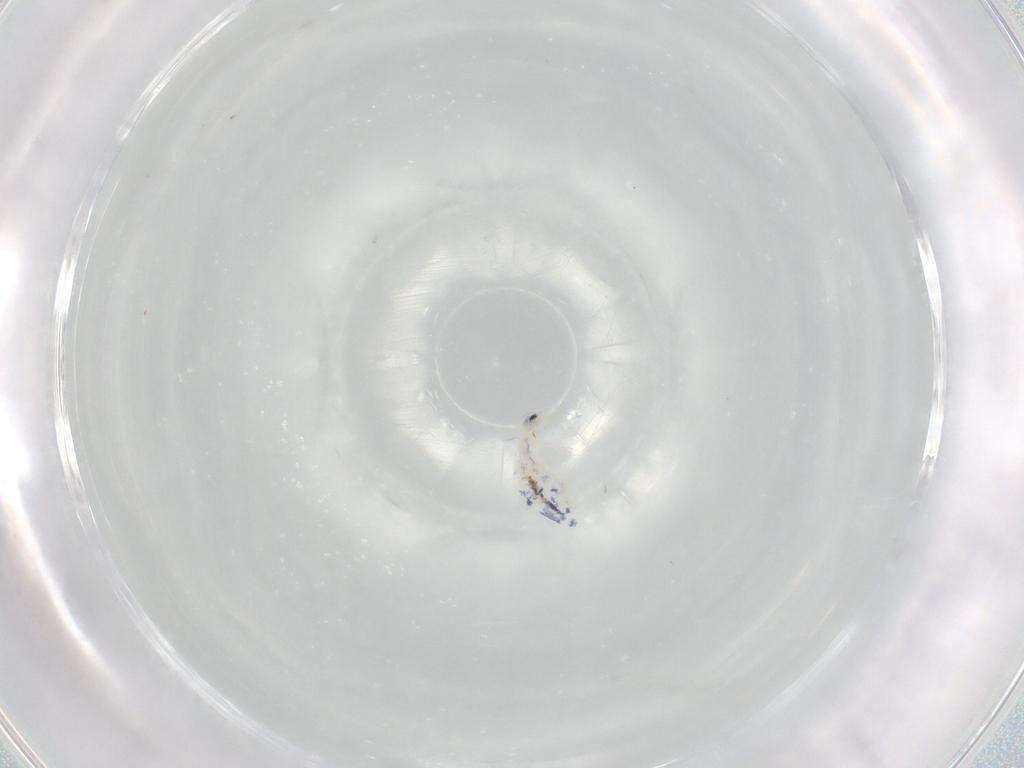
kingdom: Animalia
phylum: Arthropoda
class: Collembola
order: Entomobryomorpha
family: Entomobryidae
